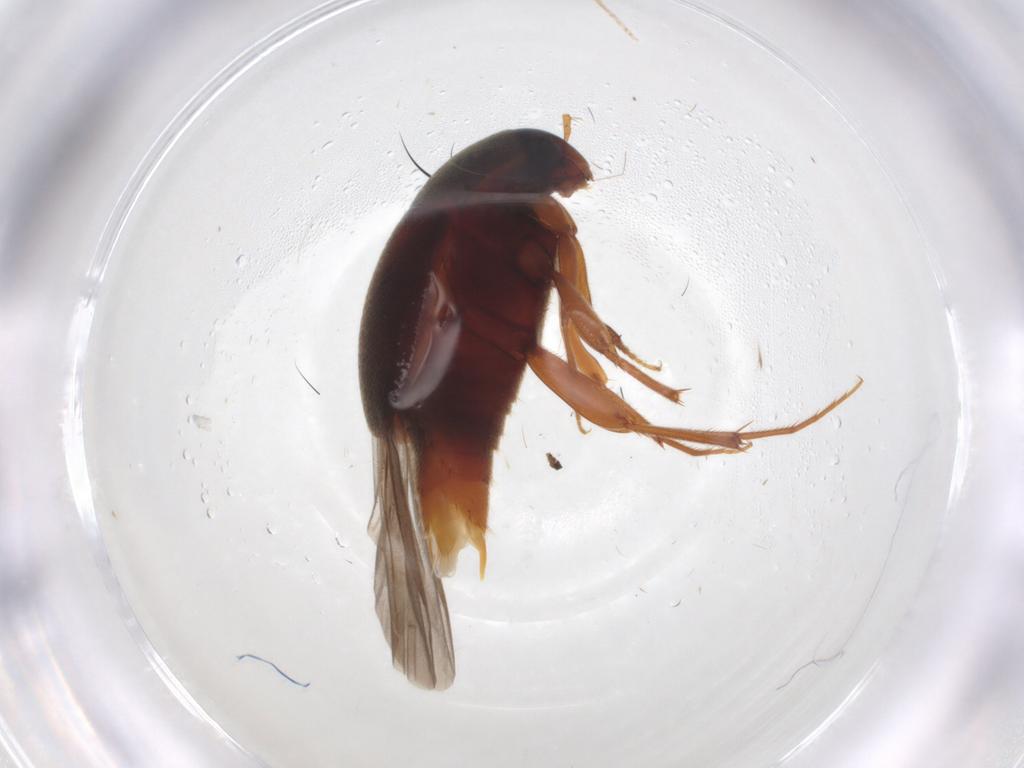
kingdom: Animalia
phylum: Arthropoda
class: Insecta
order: Coleoptera
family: Staphylinidae
